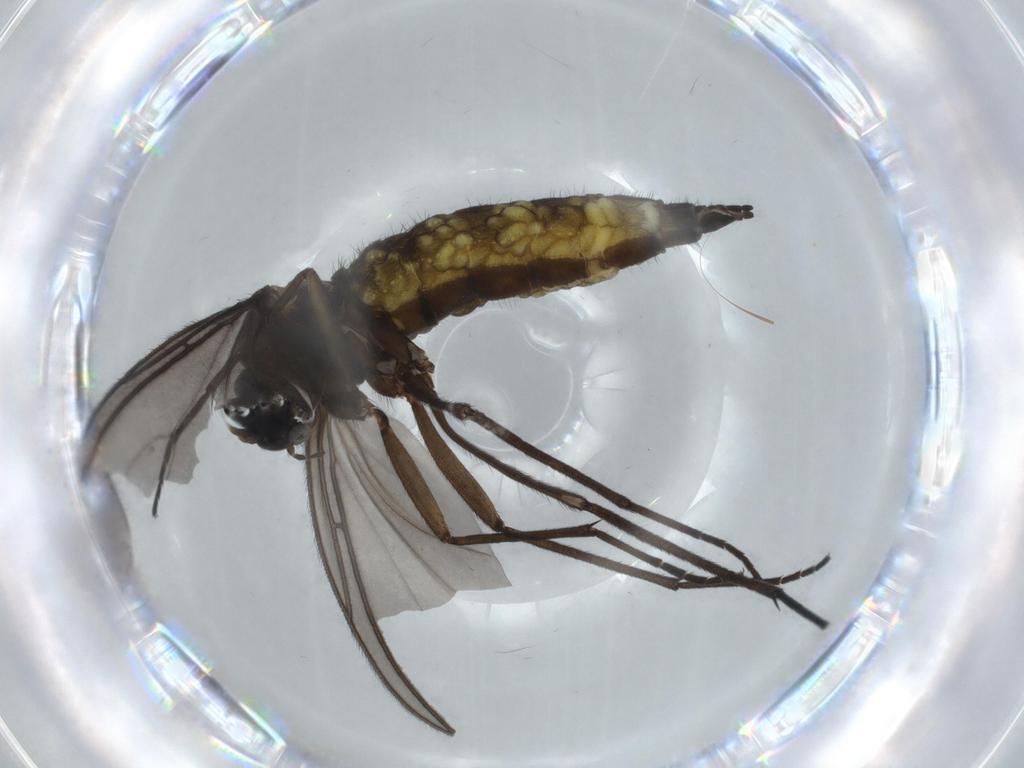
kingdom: Animalia
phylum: Arthropoda
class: Insecta
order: Diptera
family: Sciaridae
